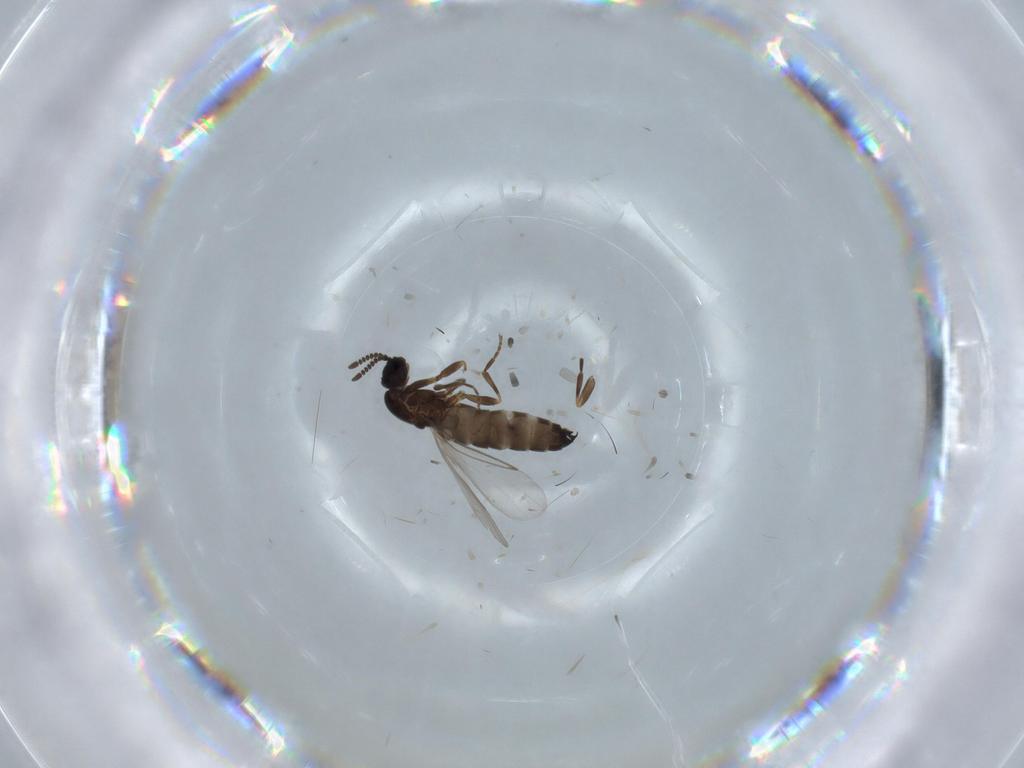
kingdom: Animalia
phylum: Arthropoda
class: Insecta
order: Diptera
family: Scatopsidae
